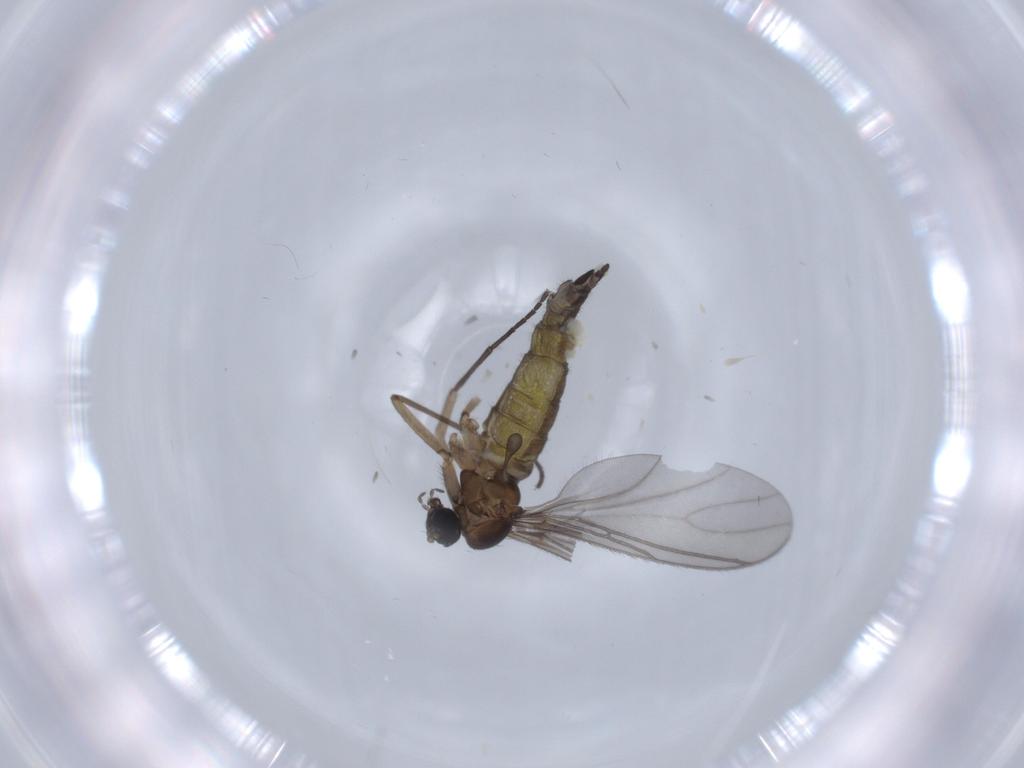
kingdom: Animalia
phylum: Arthropoda
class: Insecta
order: Diptera
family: Sciaridae
